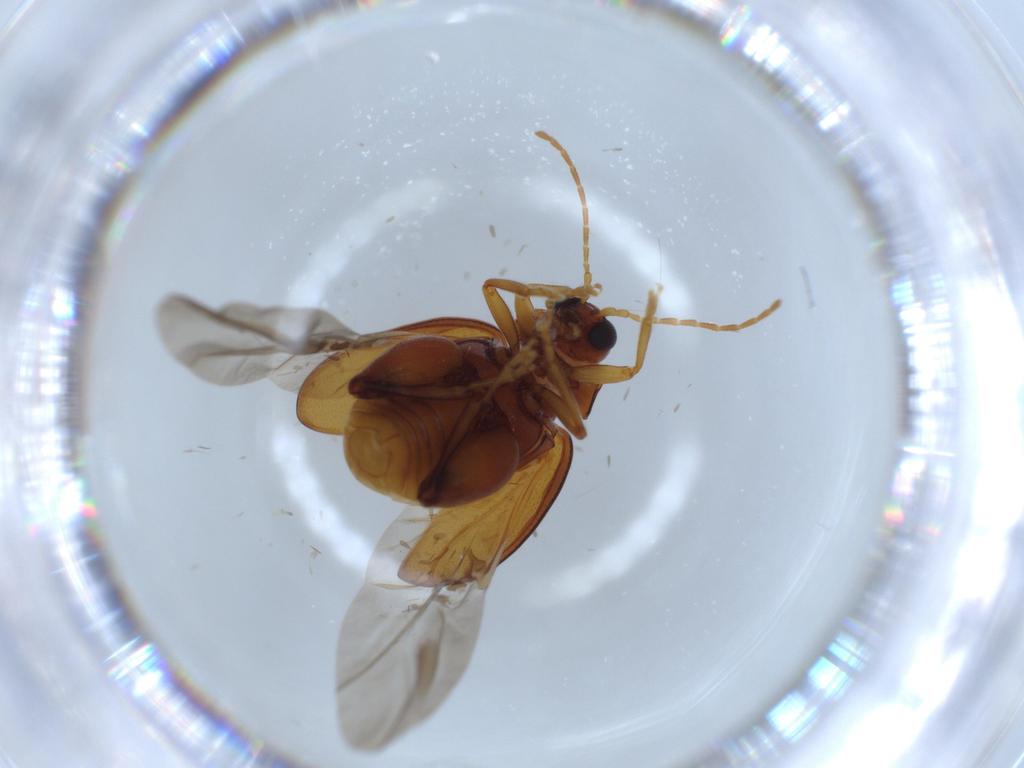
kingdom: Animalia
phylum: Arthropoda
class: Insecta
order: Coleoptera
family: Chrysomelidae
